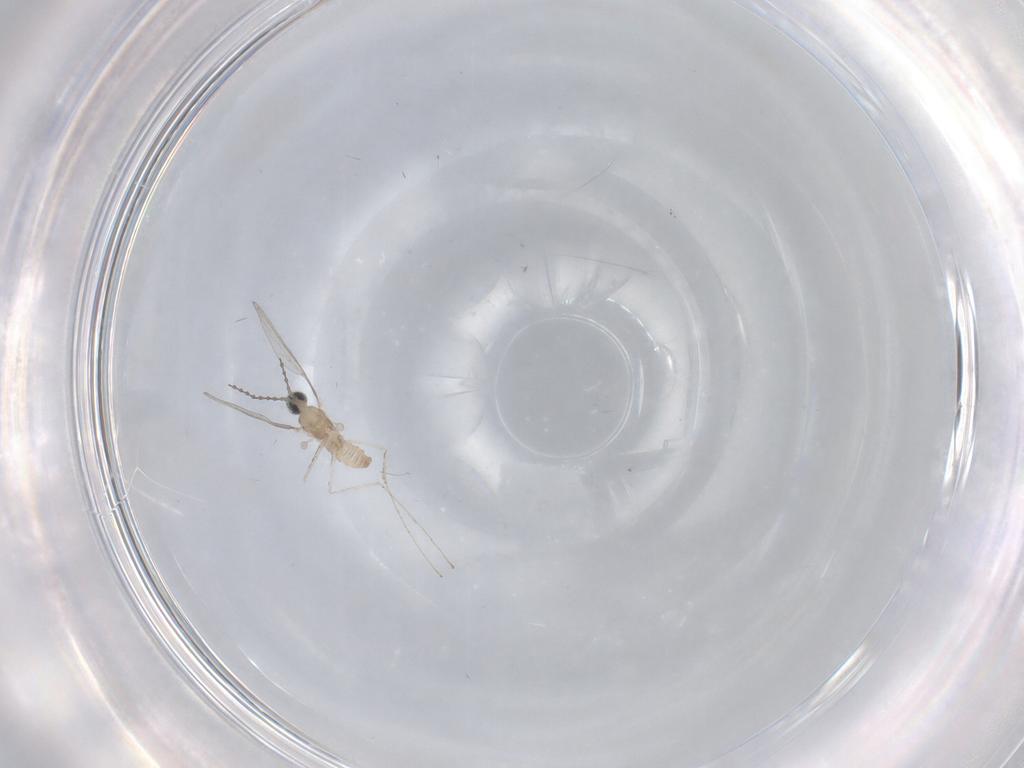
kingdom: Animalia
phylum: Arthropoda
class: Insecta
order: Diptera
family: Cecidomyiidae
